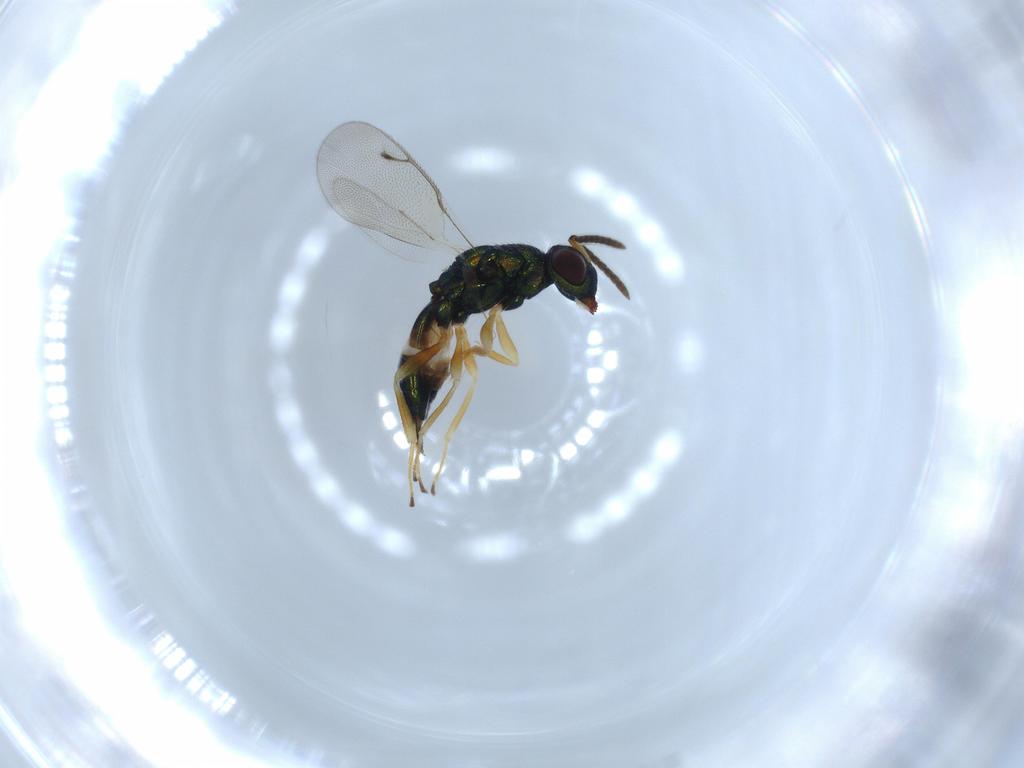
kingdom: Animalia
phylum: Arthropoda
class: Insecta
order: Hymenoptera
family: Pteromalidae
